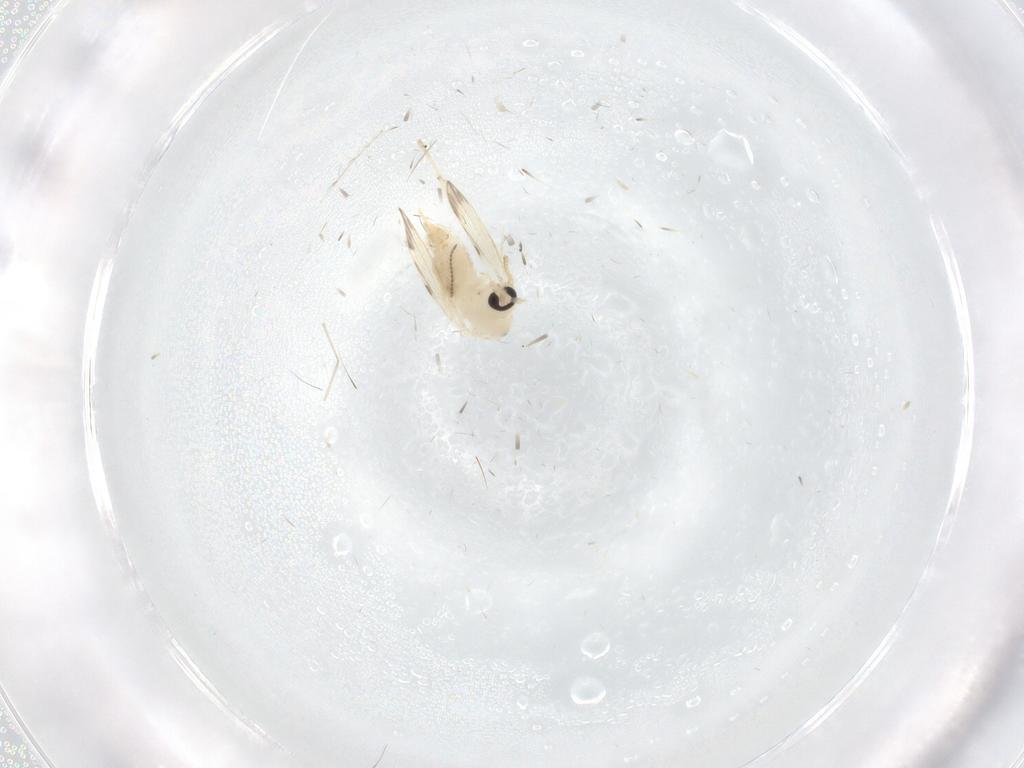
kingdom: Animalia
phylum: Arthropoda
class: Insecta
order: Diptera
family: Psychodidae
